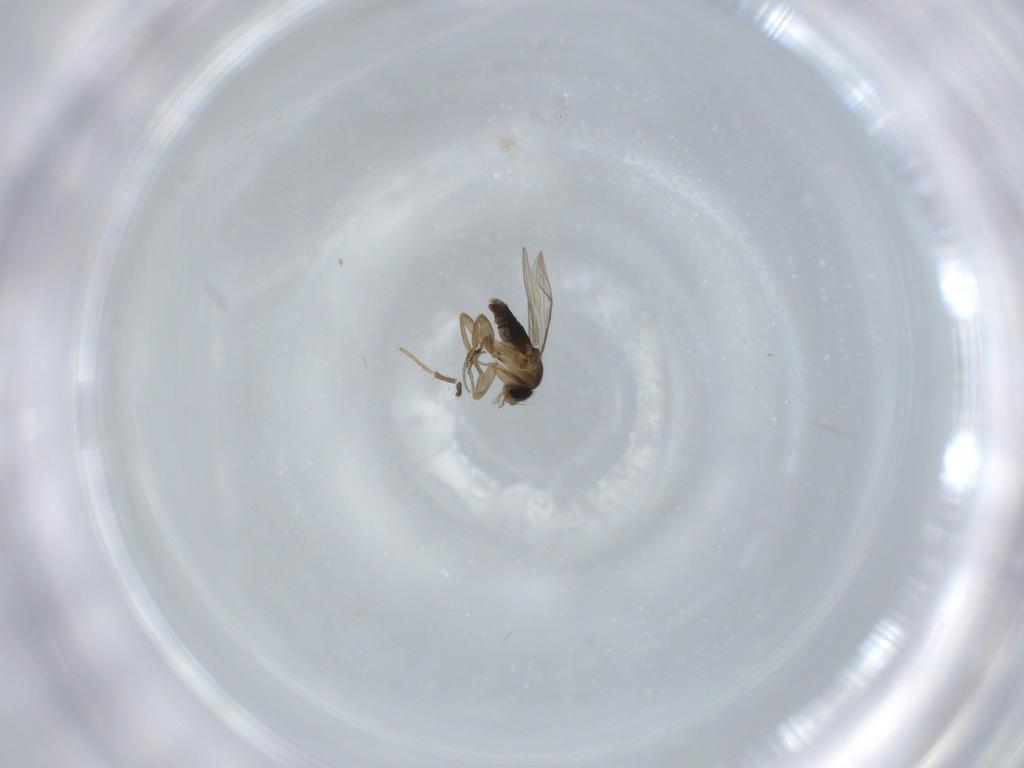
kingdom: Animalia
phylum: Arthropoda
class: Insecta
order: Diptera
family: Phoridae
